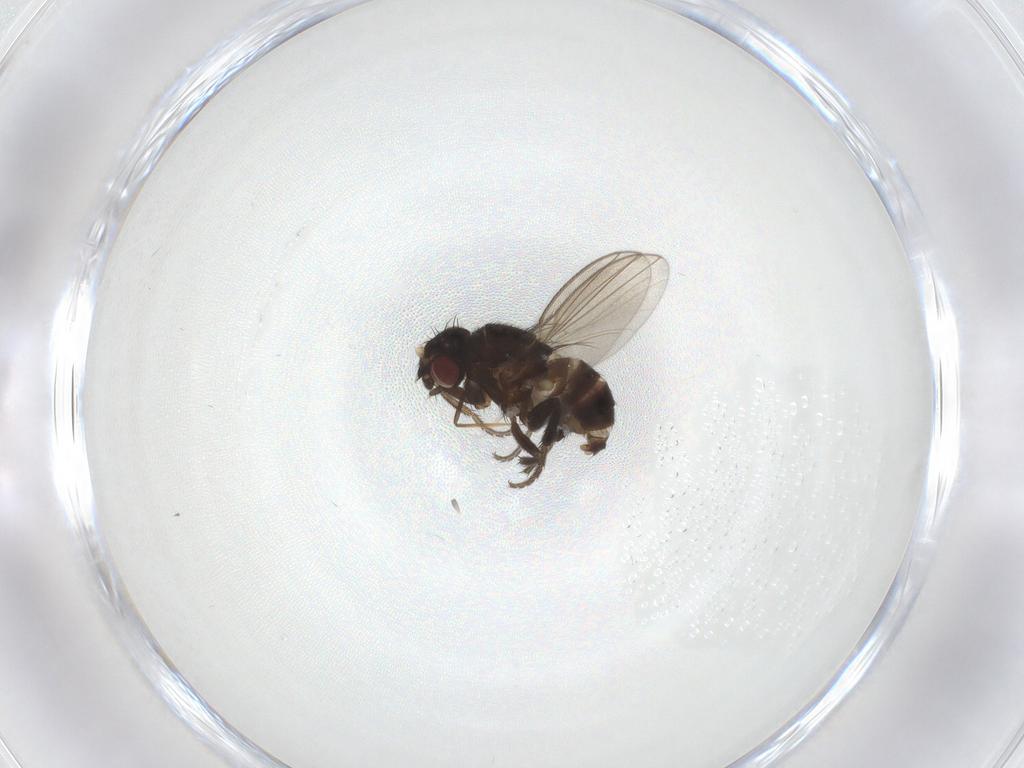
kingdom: Animalia
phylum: Arthropoda
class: Insecta
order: Diptera
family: Milichiidae
